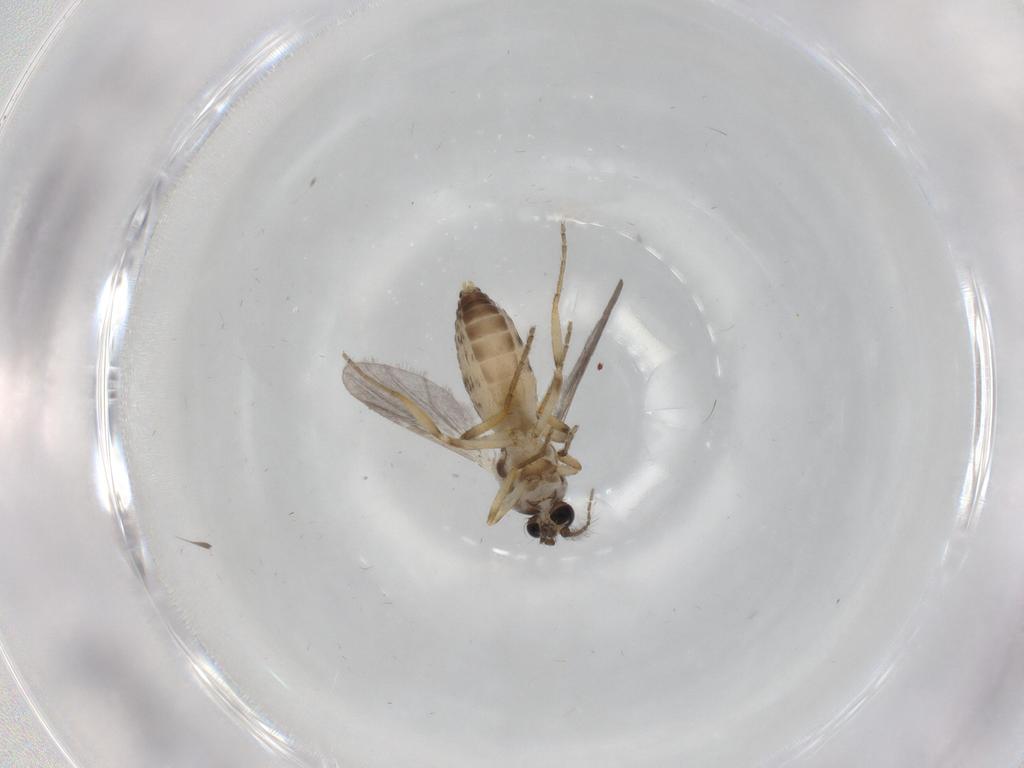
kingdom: Animalia
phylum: Arthropoda
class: Insecta
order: Diptera
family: Ceratopogonidae
